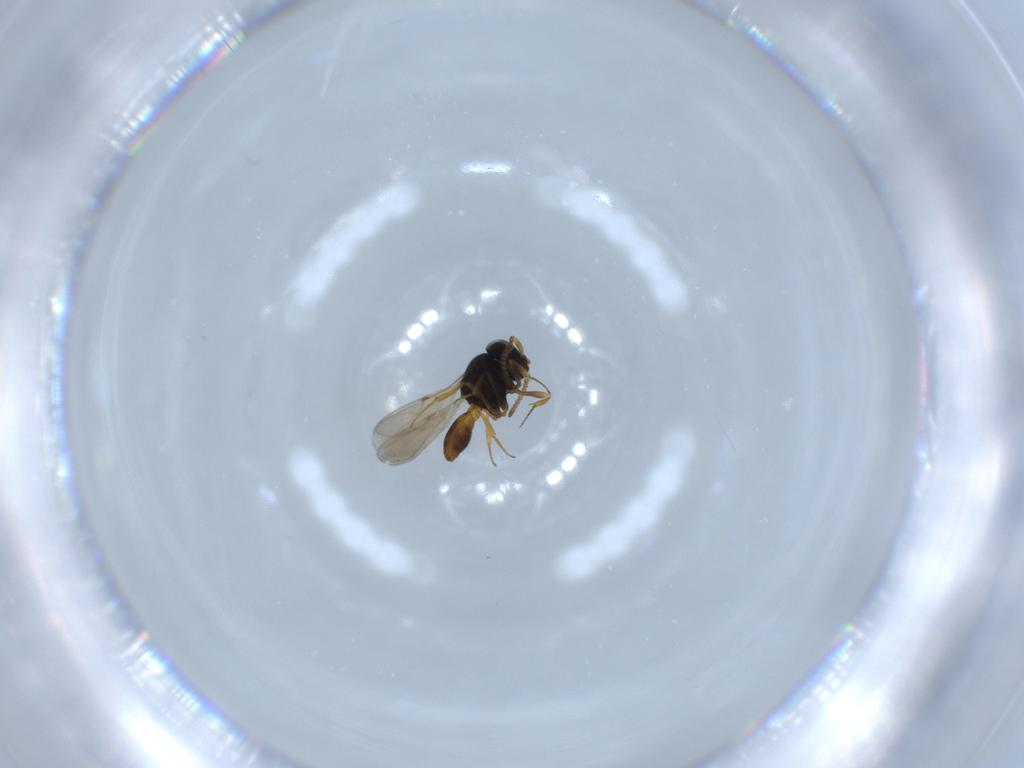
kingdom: Animalia
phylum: Arthropoda
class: Insecta
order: Hymenoptera
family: Scelionidae
